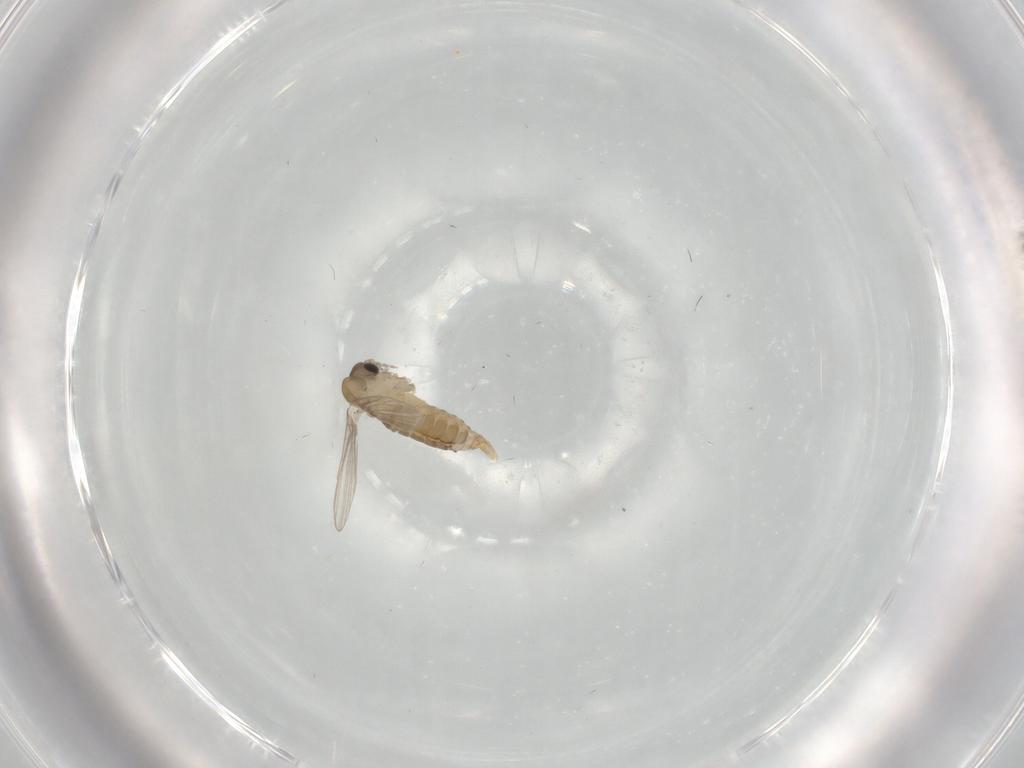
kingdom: Animalia
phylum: Arthropoda
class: Insecta
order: Diptera
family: Psychodidae
